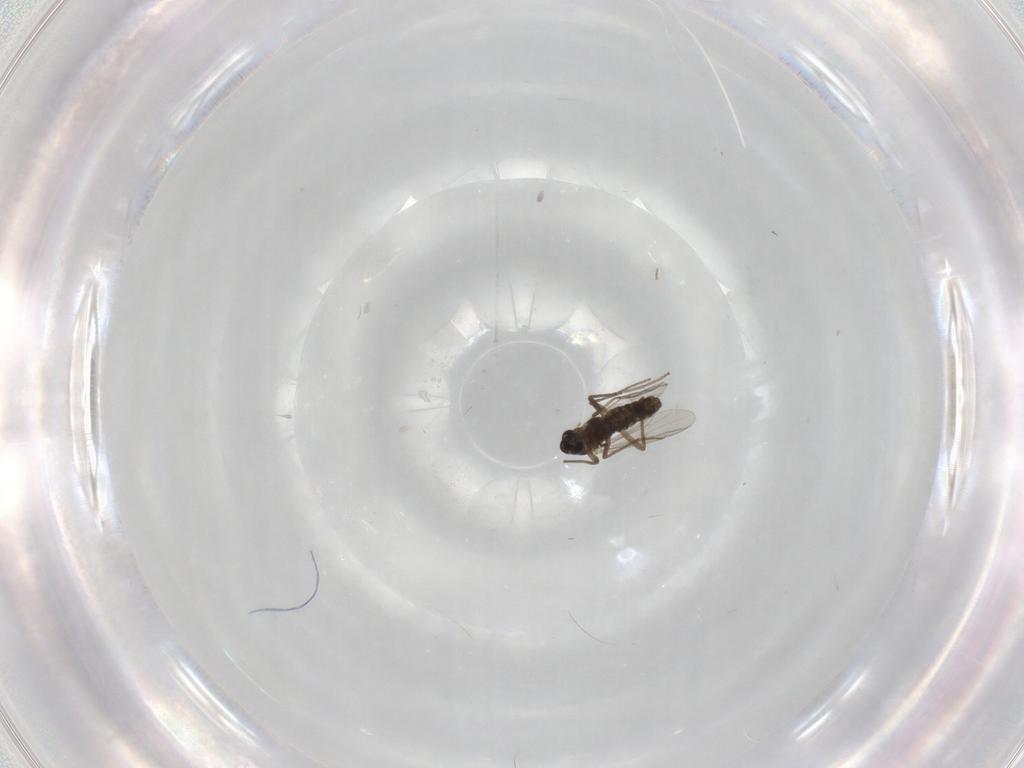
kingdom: Animalia
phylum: Arthropoda
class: Insecta
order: Diptera
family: Chironomidae
